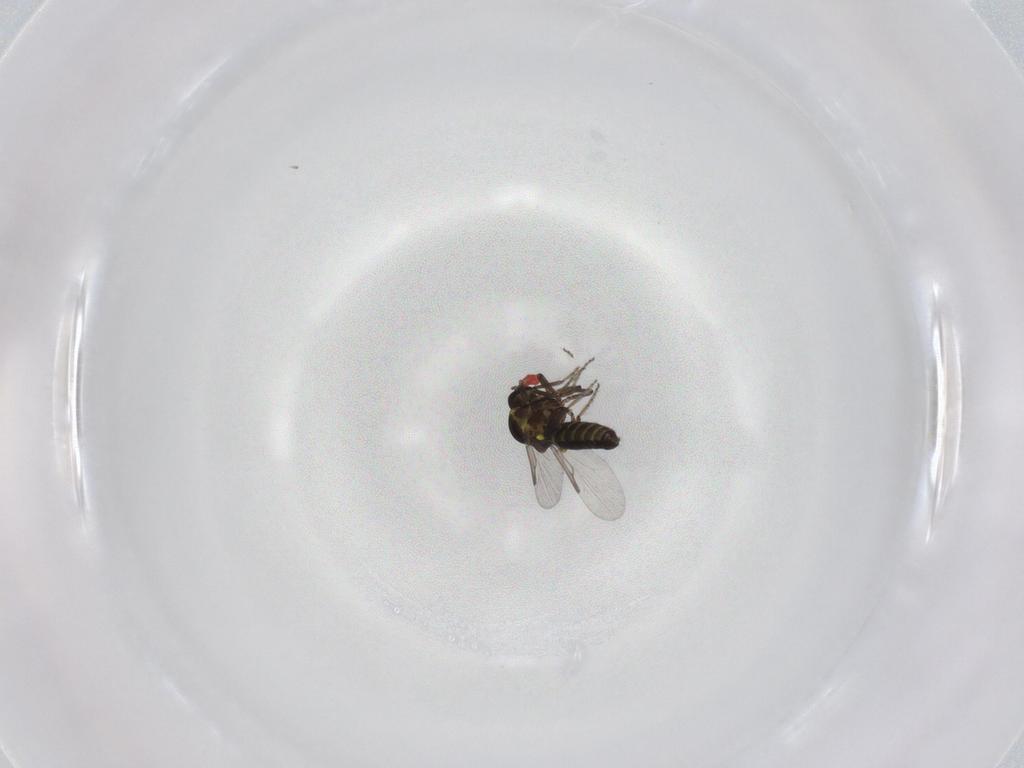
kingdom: Animalia
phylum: Arthropoda
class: Insecta
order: Diptera
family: Ceratopogonidae
